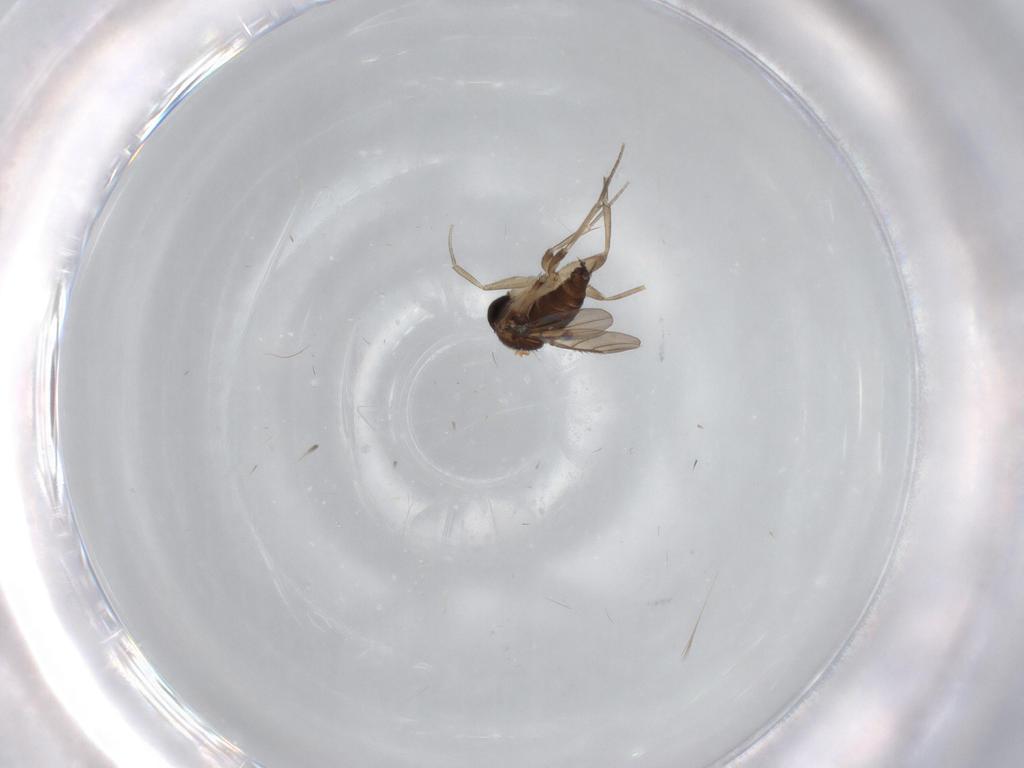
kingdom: Animalia
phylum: Arthropoda
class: Insecta
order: Diptera
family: Phoridae
